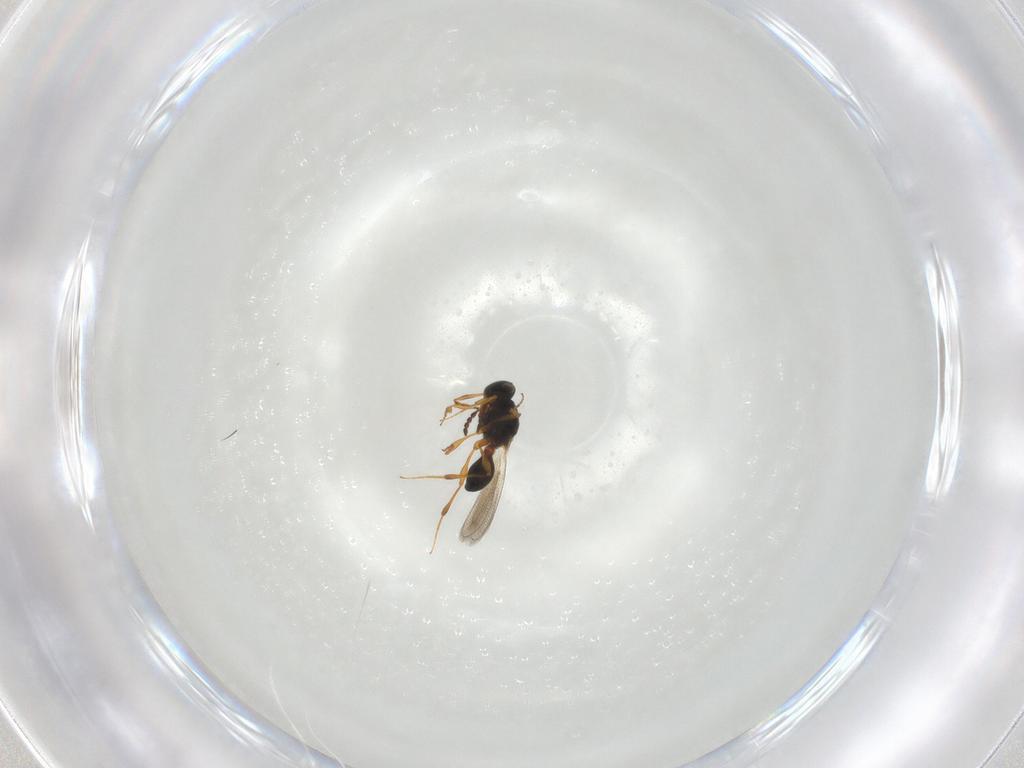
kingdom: Animalia
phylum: Arthropoda
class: Insecta
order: Hymenoptera
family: Platygastridae
